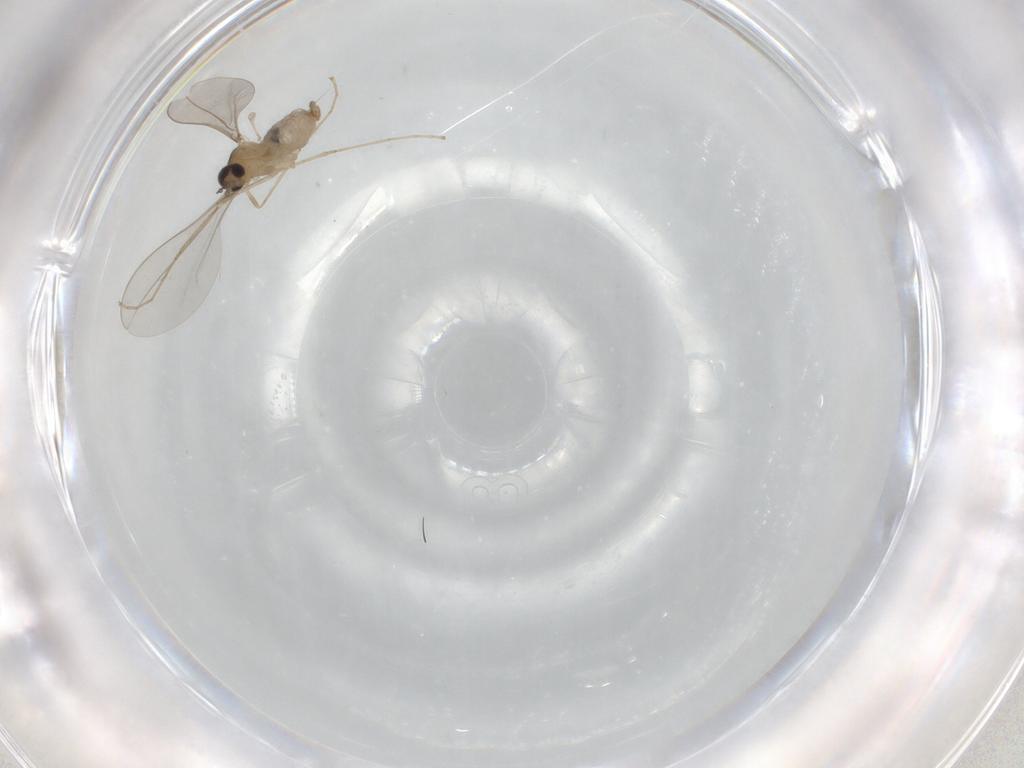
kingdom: Animalia
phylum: Arthropoda
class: Insecta
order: Diptera
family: Cecidomyiidae
